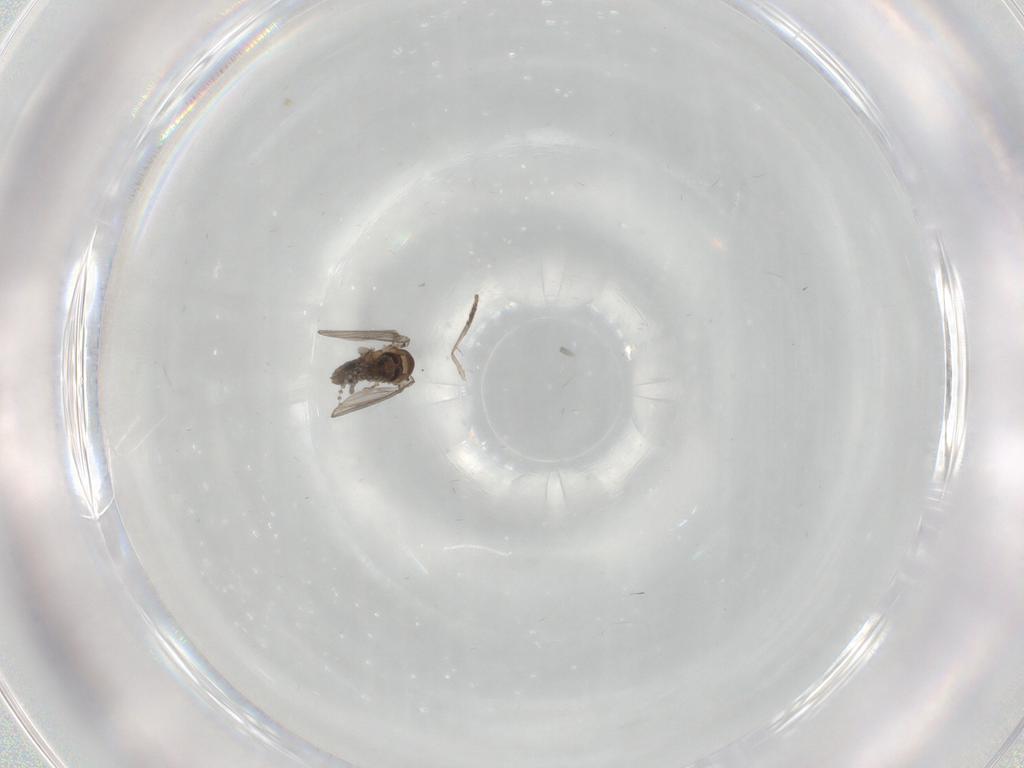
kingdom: Animalia
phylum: Arthropoda
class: Insecta
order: Diptera
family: Psychodidae
